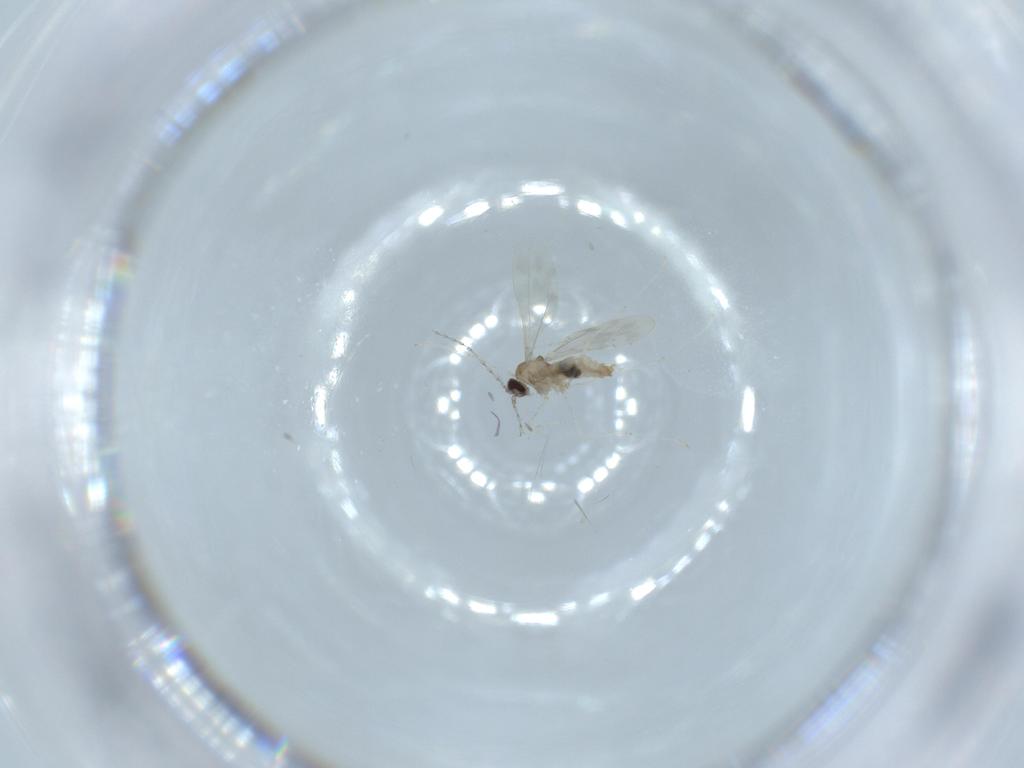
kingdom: Animalia
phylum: Arthropoda
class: Insecta
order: Diptera
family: Cecidomyiidae
